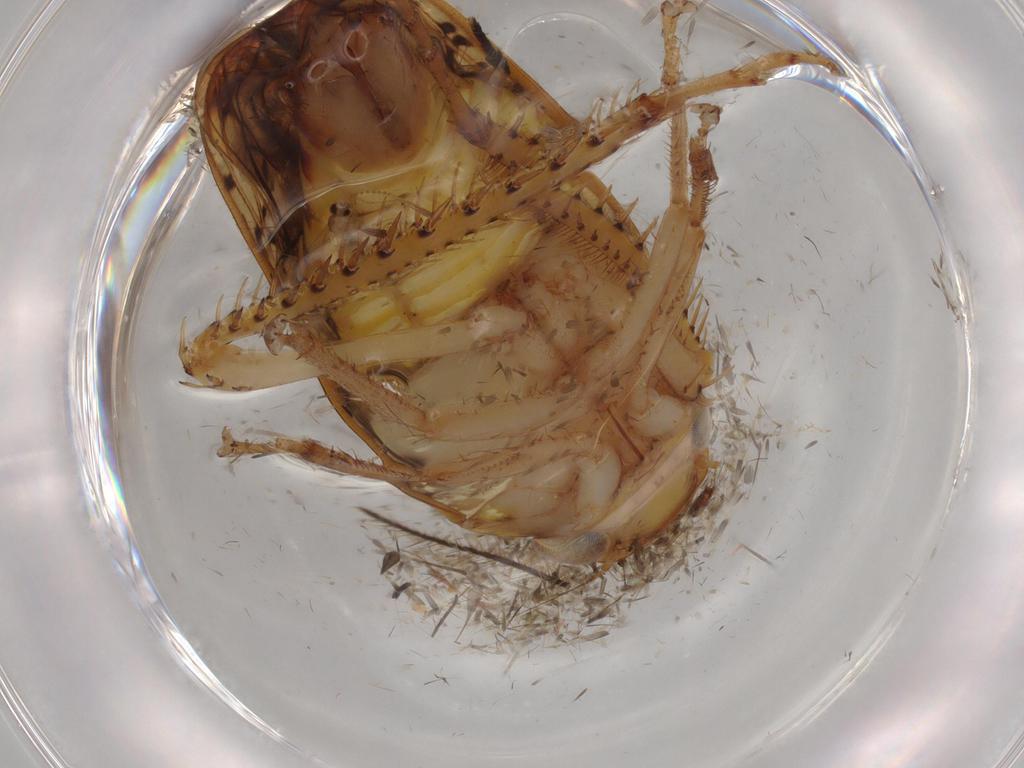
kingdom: Animalia
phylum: Arthropoda
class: Insecta
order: Hemiptera
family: Cicadellidae
